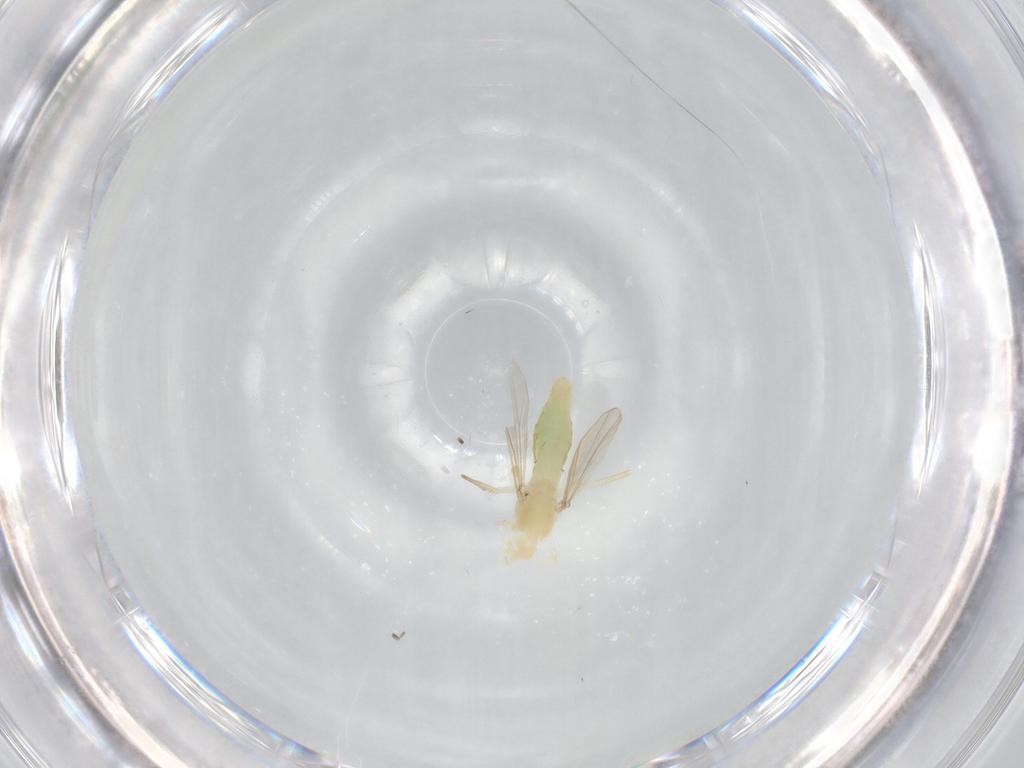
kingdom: Animalia
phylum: Arthropoda
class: Insecta
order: Diptera
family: Chironomidae
